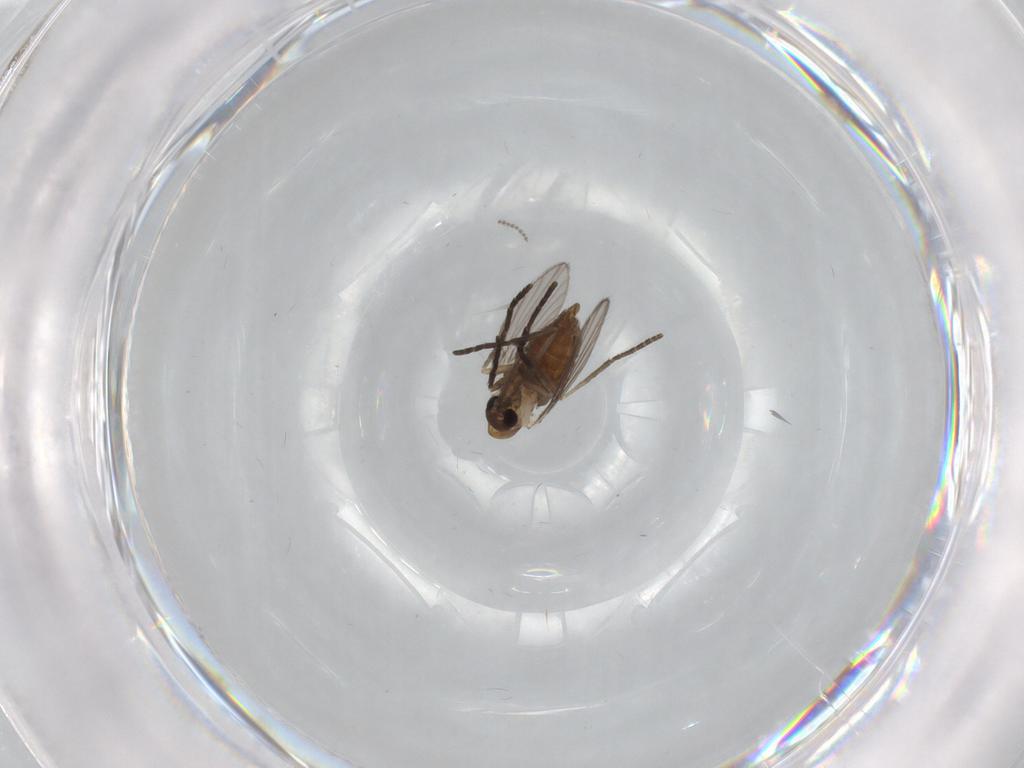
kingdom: Animalia
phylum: Arthropoda
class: Insecta
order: Diptera
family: Psychodidae
